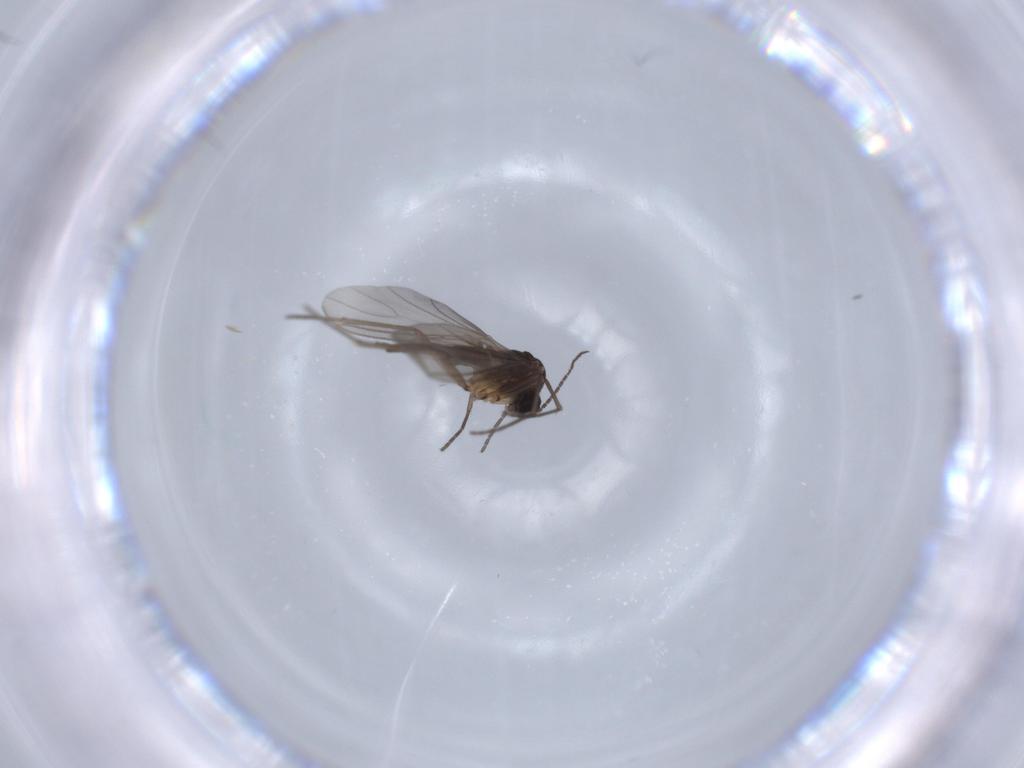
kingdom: Animalia
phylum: Arthropoda
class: Insecta
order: Diptera
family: Sciaridae
